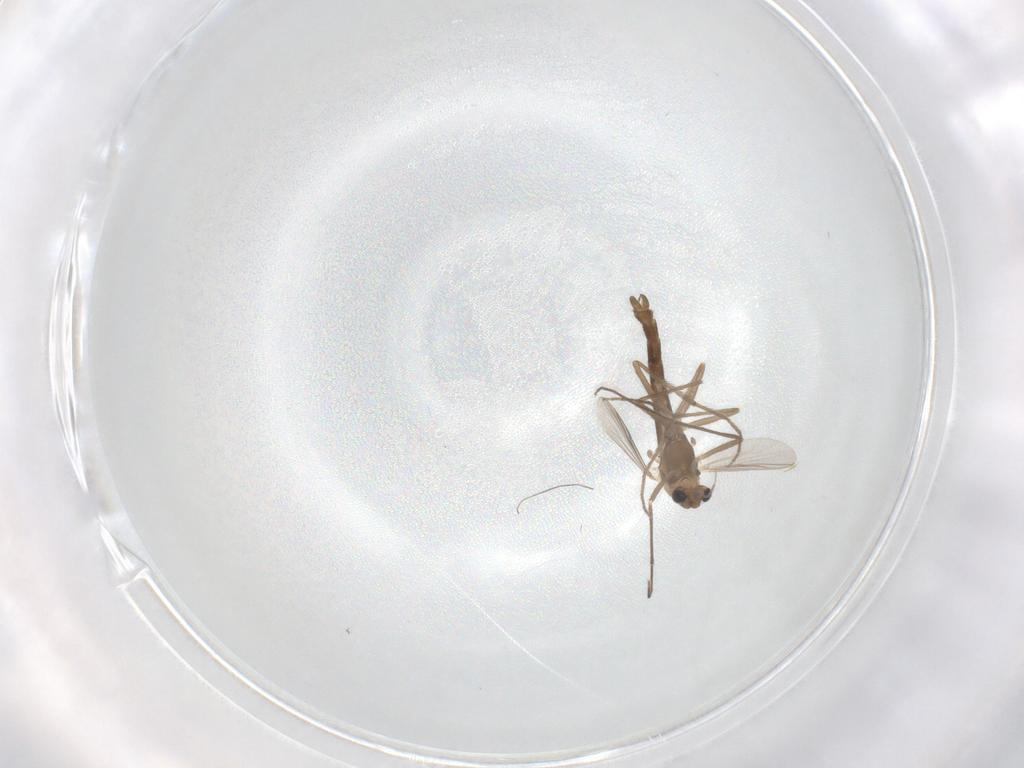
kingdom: Animalia
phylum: Arthropoda
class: Insecta
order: Diptera
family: Chironomidae
